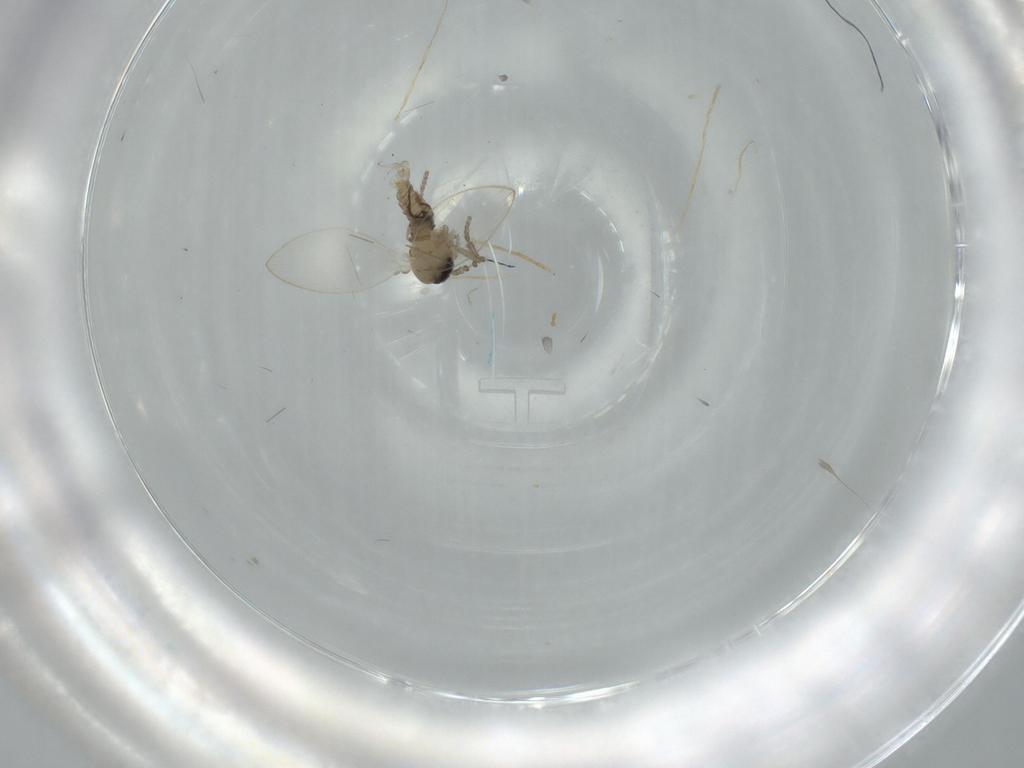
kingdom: Animalia
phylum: Arthropoda
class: Insecta
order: Diptera
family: Psychodidae
